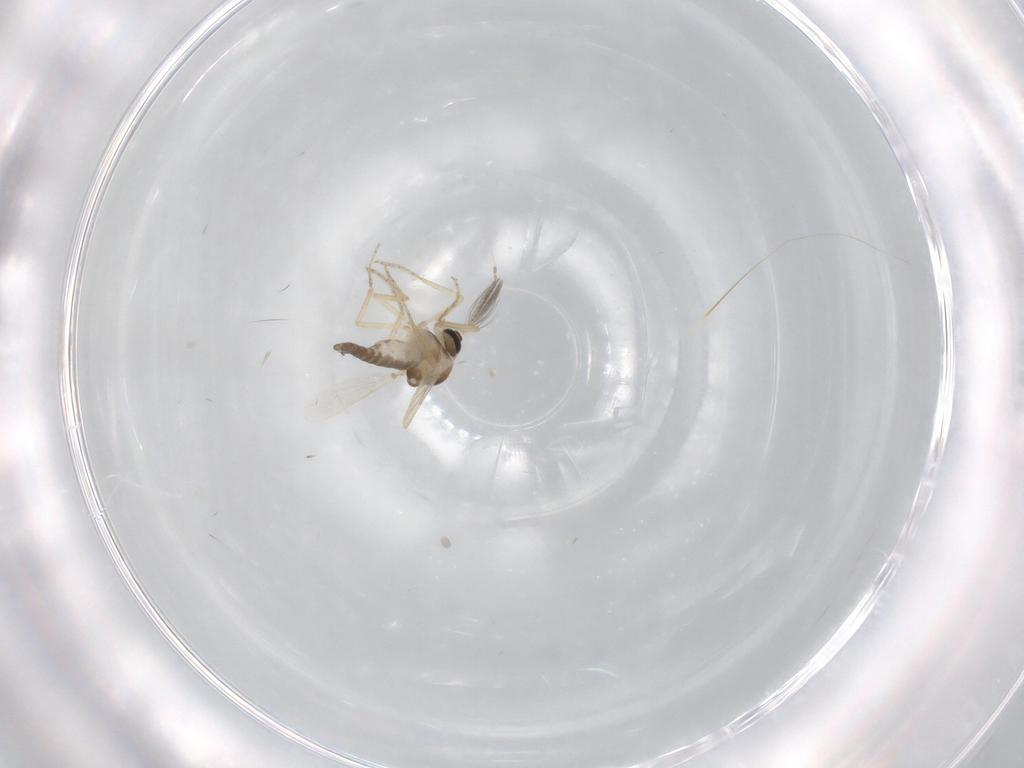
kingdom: Animalia
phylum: Arthropoda
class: Insecta
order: Diptera
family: Ceratopogonidae
